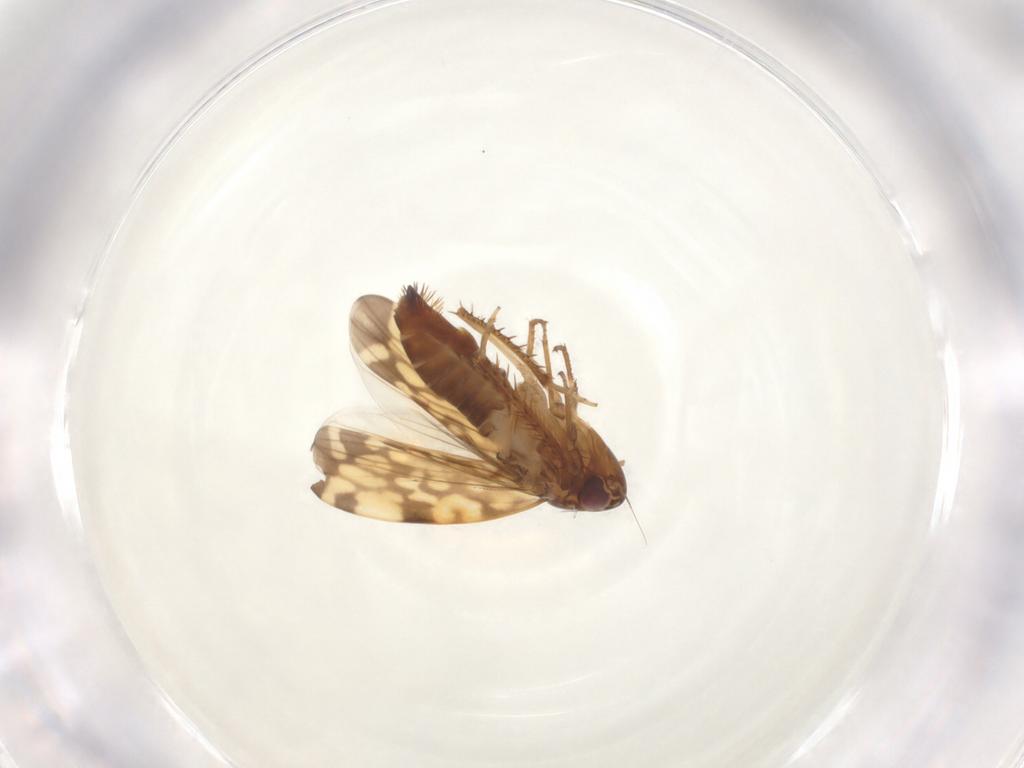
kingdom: Animalia
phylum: Arthropoda
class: Insecta
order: Hemiptera
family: Cicadellidae
